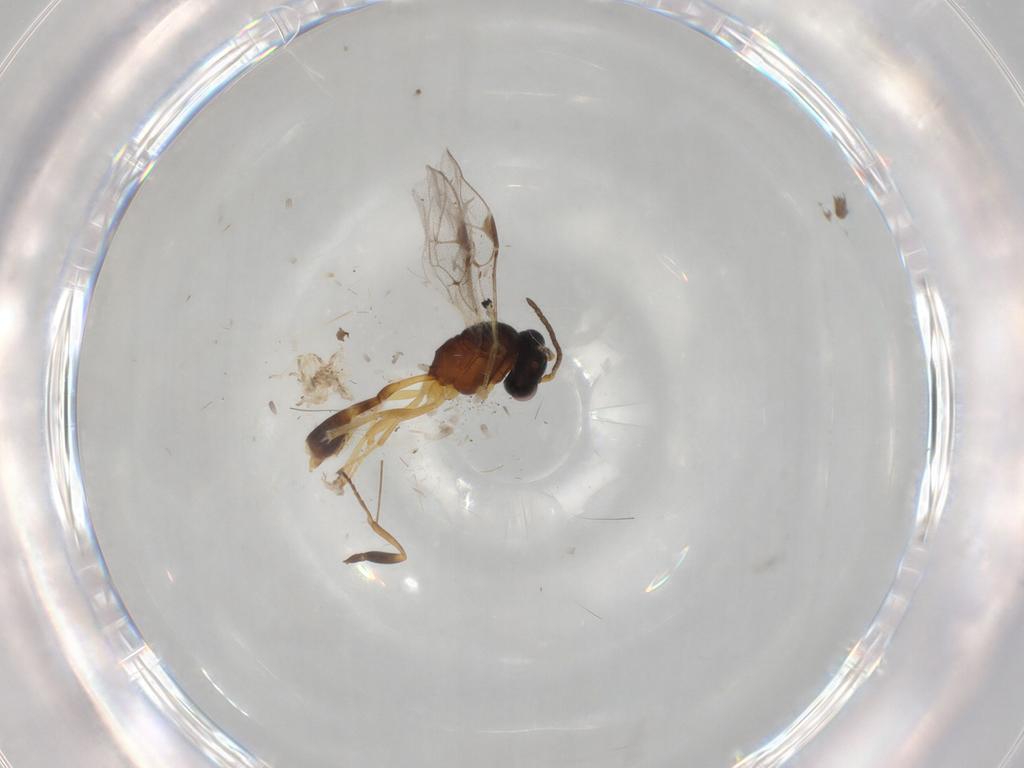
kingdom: Animalia
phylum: Arthropoda
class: Insecta
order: Hymenoptera
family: Ichneumonidae
